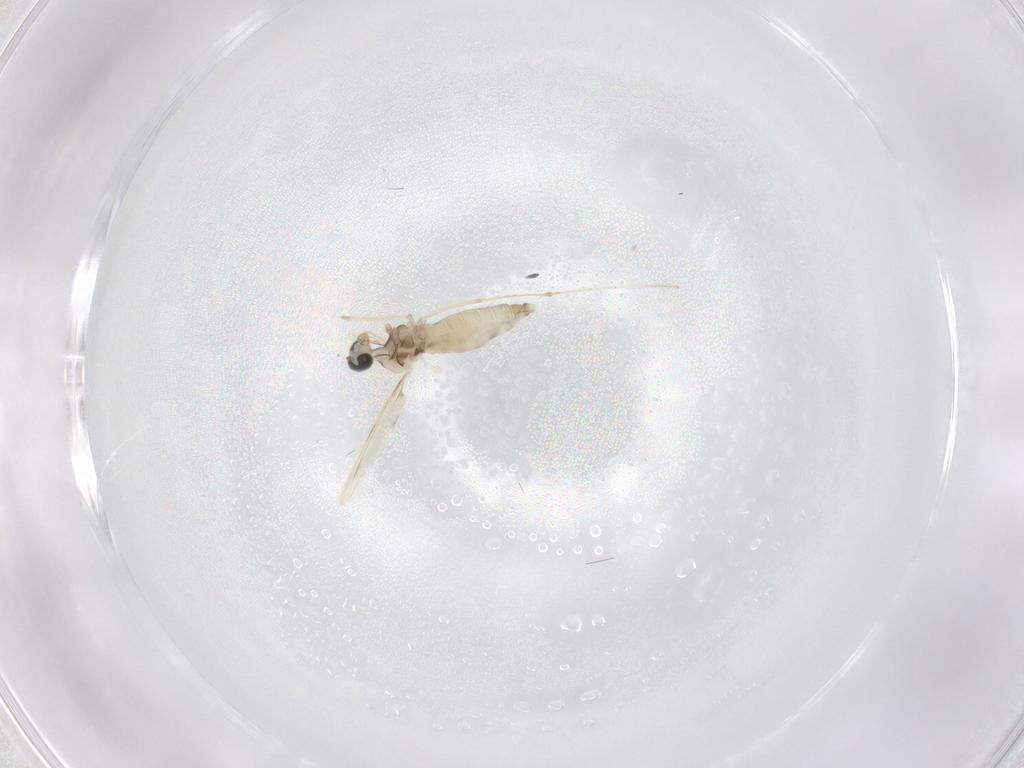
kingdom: Animalia
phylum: Arthropoda
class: Insecta
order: Diptera
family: Cecidomyiidae
